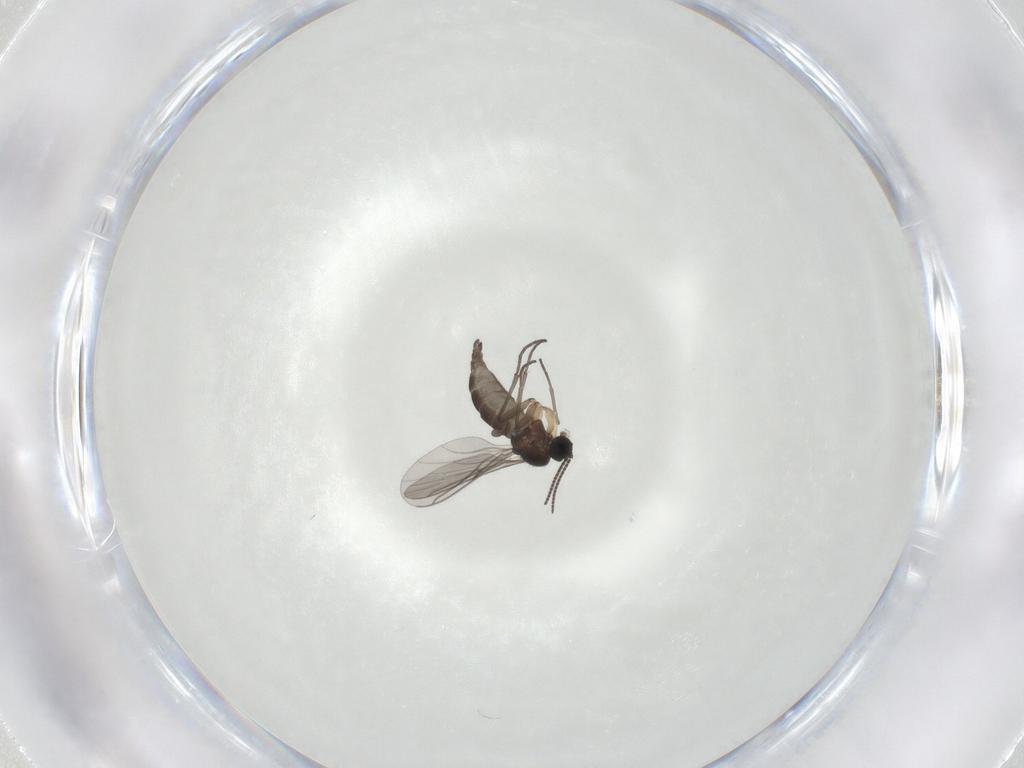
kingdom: Animalia
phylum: Arthropoda
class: Insecta
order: Diptera
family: Sciaridae
